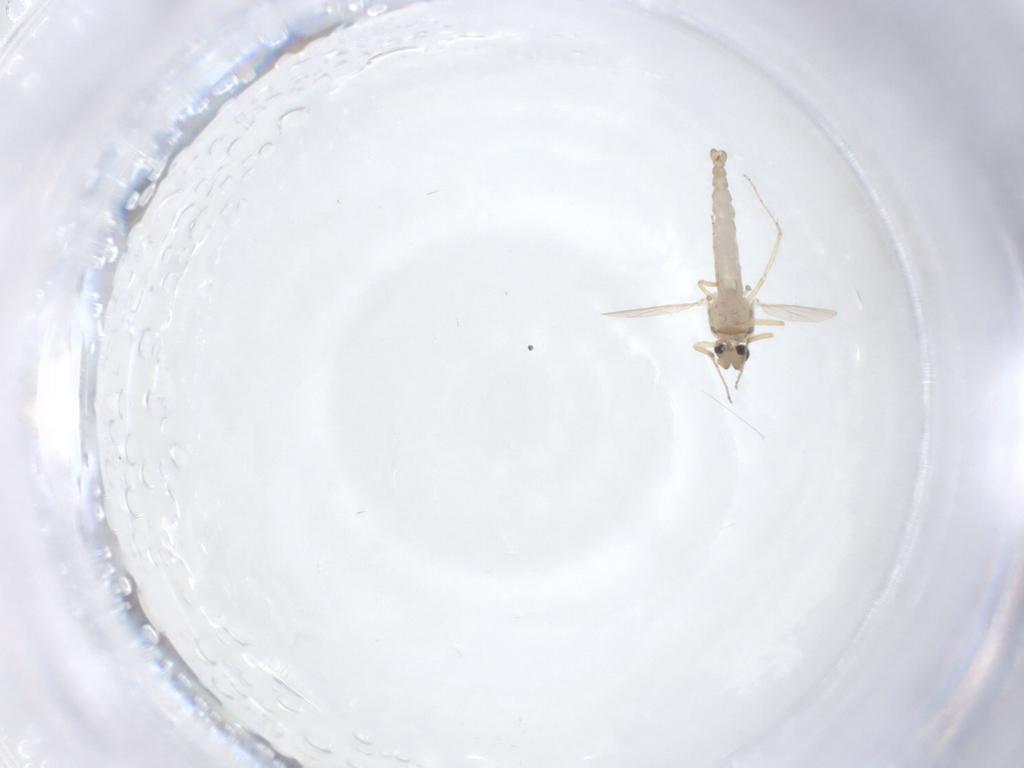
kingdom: Animalia
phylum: Arthropoda
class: Insecta
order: Diptera
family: Ceratopogonidae
